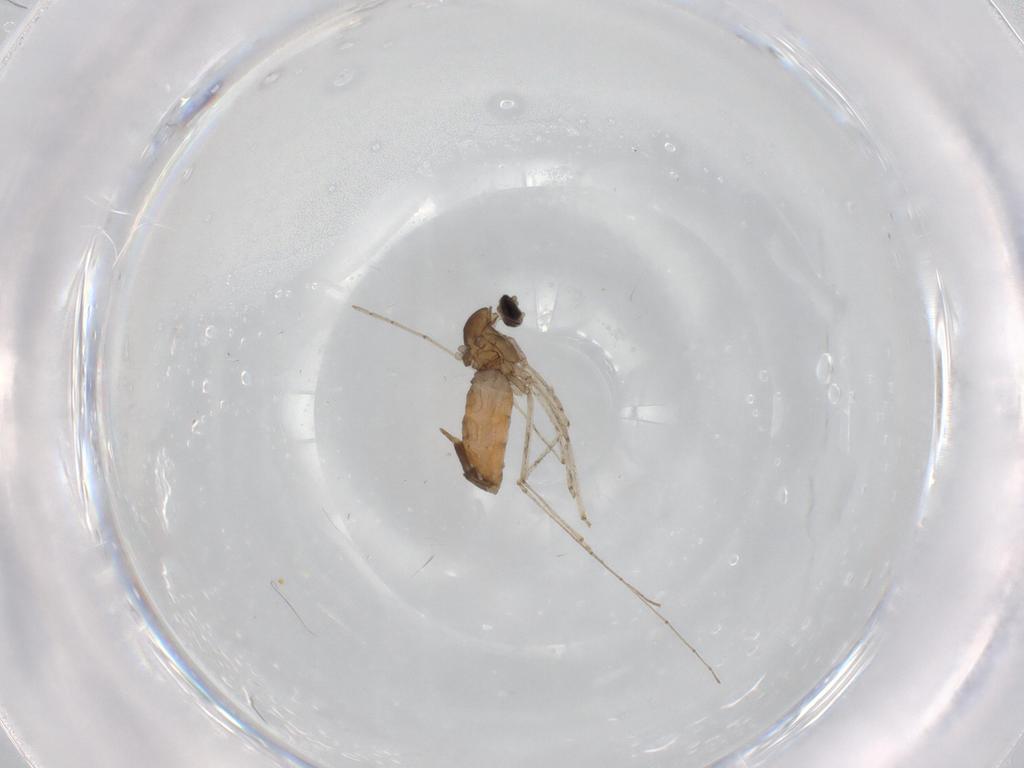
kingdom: Animalia
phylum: Arthropoda
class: Insecta
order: Diptera
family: Cecidomyiidae
